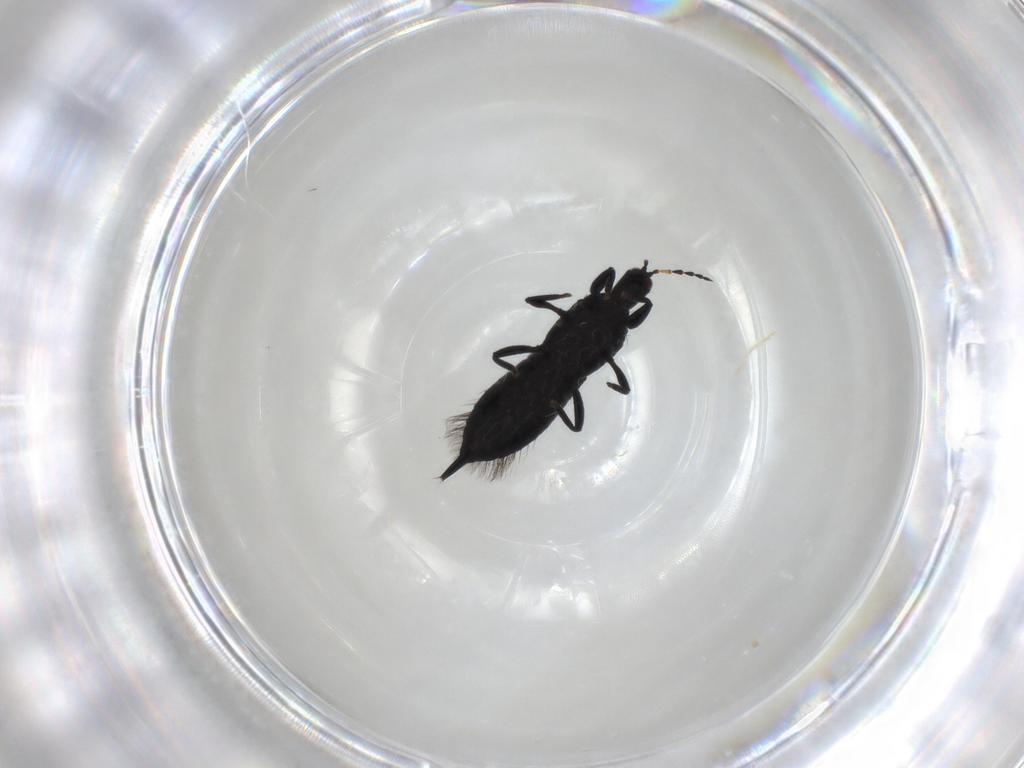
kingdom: Animalia
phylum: Arthropoda
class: Insecta
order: Thysanoptera
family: Phlaeothripidae
